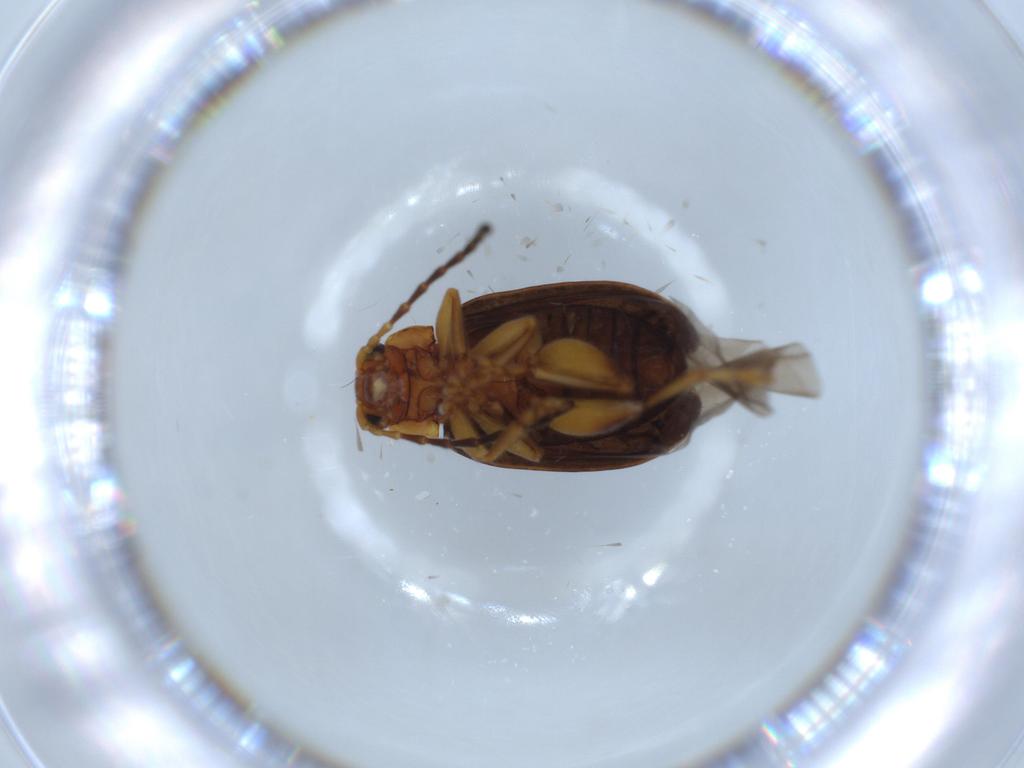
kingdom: Animalia
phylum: Arthropoda
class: Insecta
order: Coleoptera
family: Chrysomelidae
